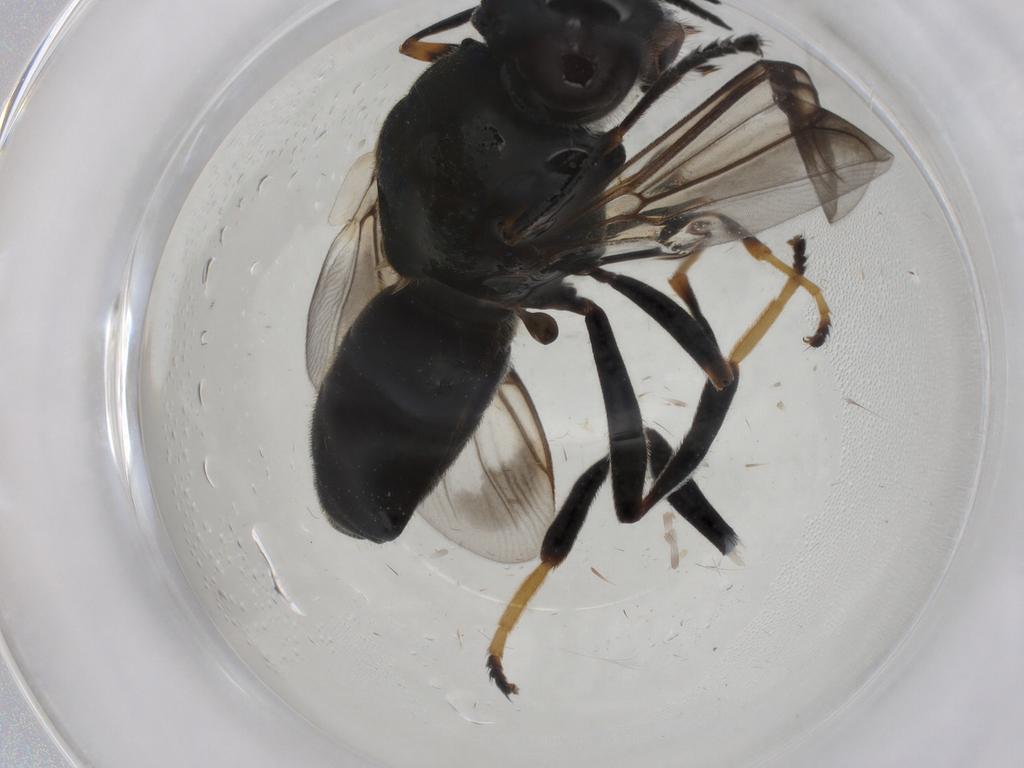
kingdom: Animalia
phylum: Arthropoda
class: Insecta
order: Diptera
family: Stratiomyidae
